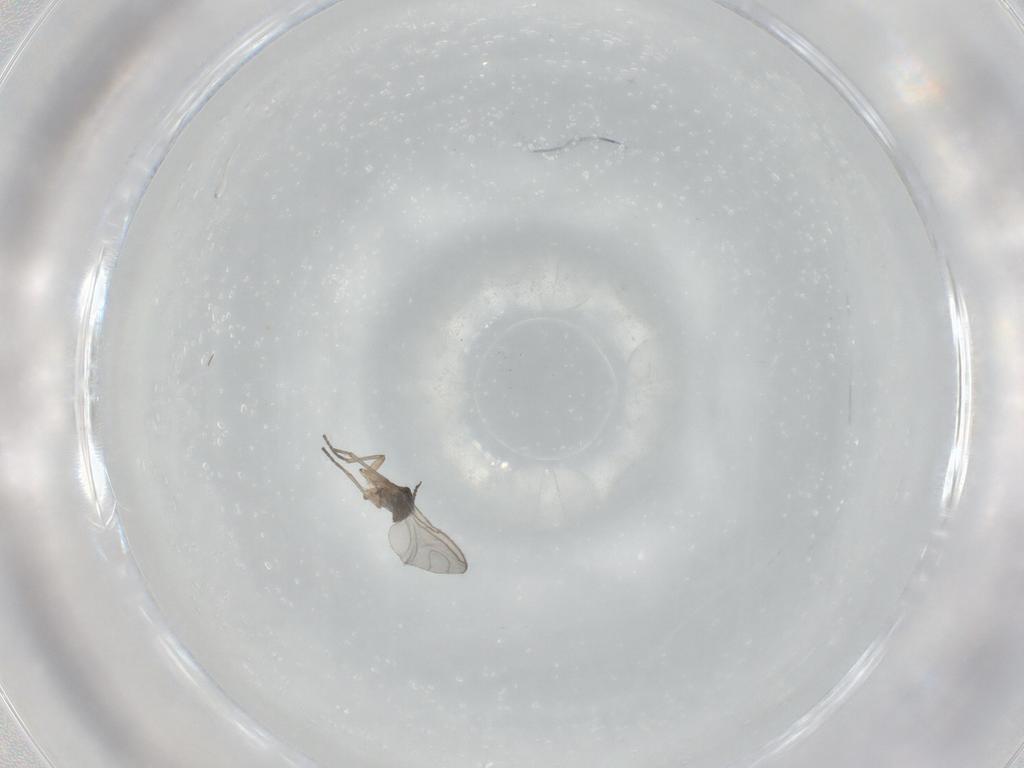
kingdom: Animalia
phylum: Arthropoda
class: Insecta
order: Diptera
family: Sciaridae
